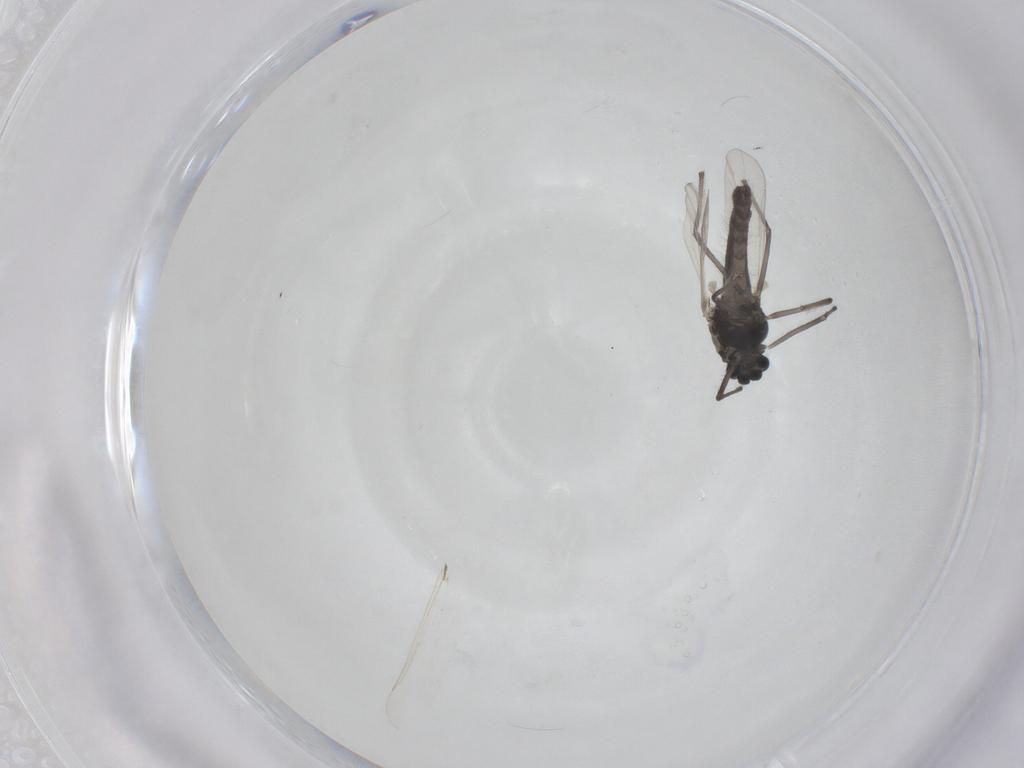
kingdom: Animalia
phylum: Arthropoda
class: Insecta
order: Diptera
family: Chironomidae
